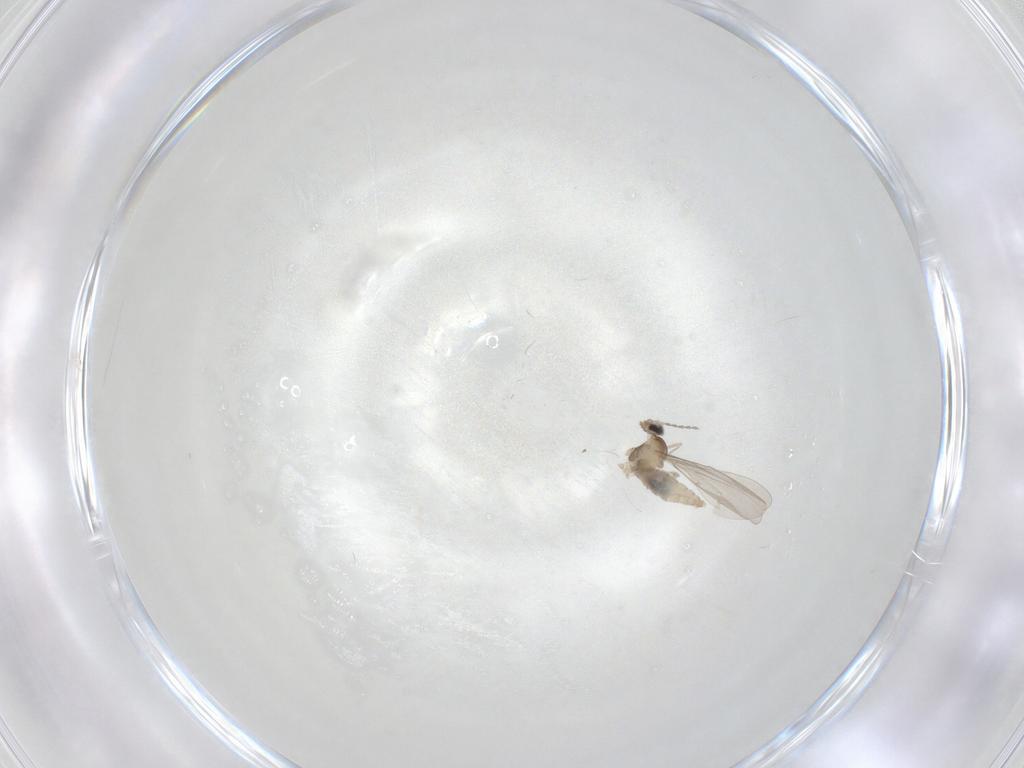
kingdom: Animalia
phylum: Arthropoda
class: Insecta
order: Diptera
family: Cecidomyiidae
